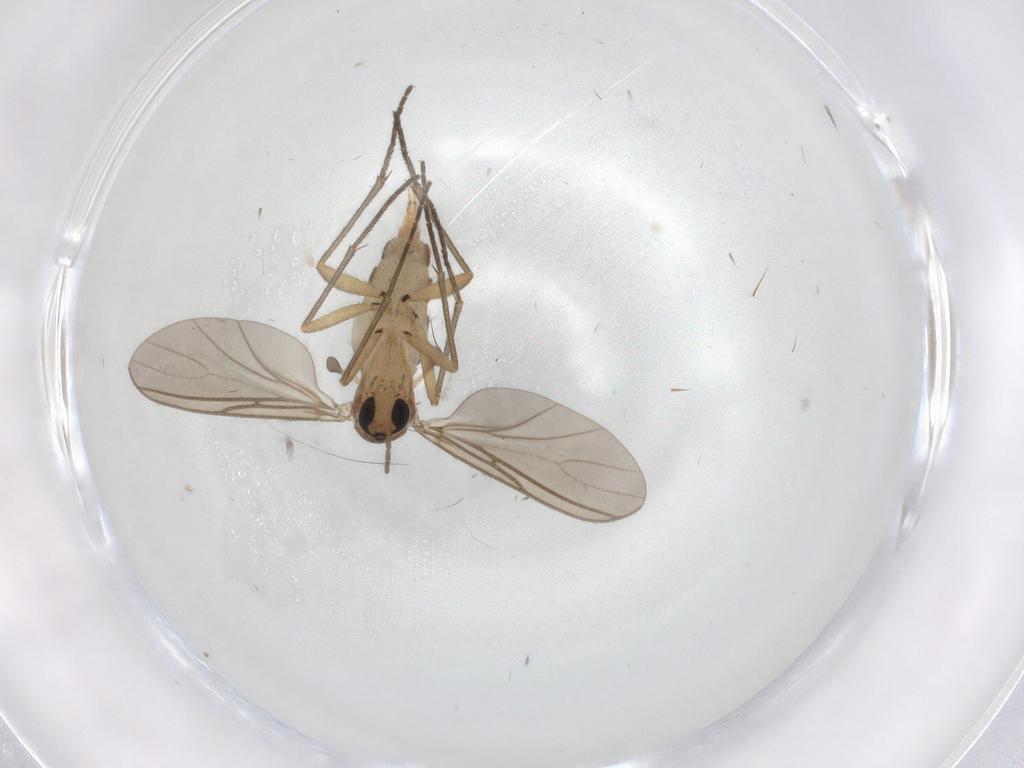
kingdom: Animalia
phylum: Arthropoda
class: Insecta
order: Diptera
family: Sciaridae
